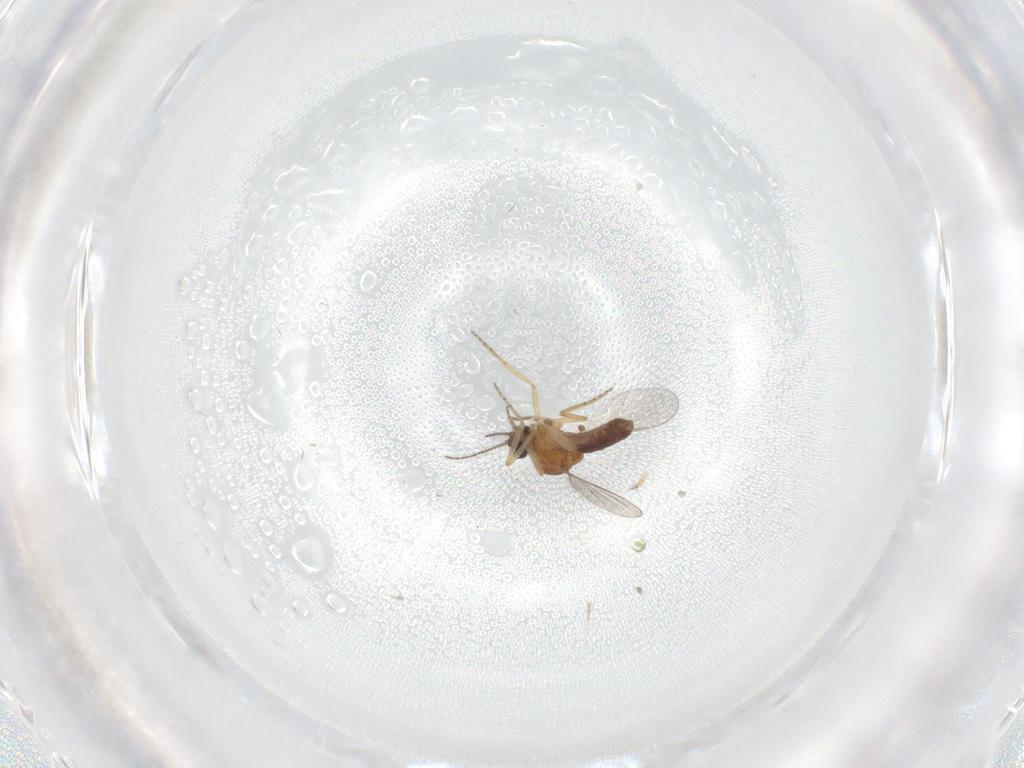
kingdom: Animalia
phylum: Arthropoda
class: Insecta
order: Diptera
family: Phoridae
